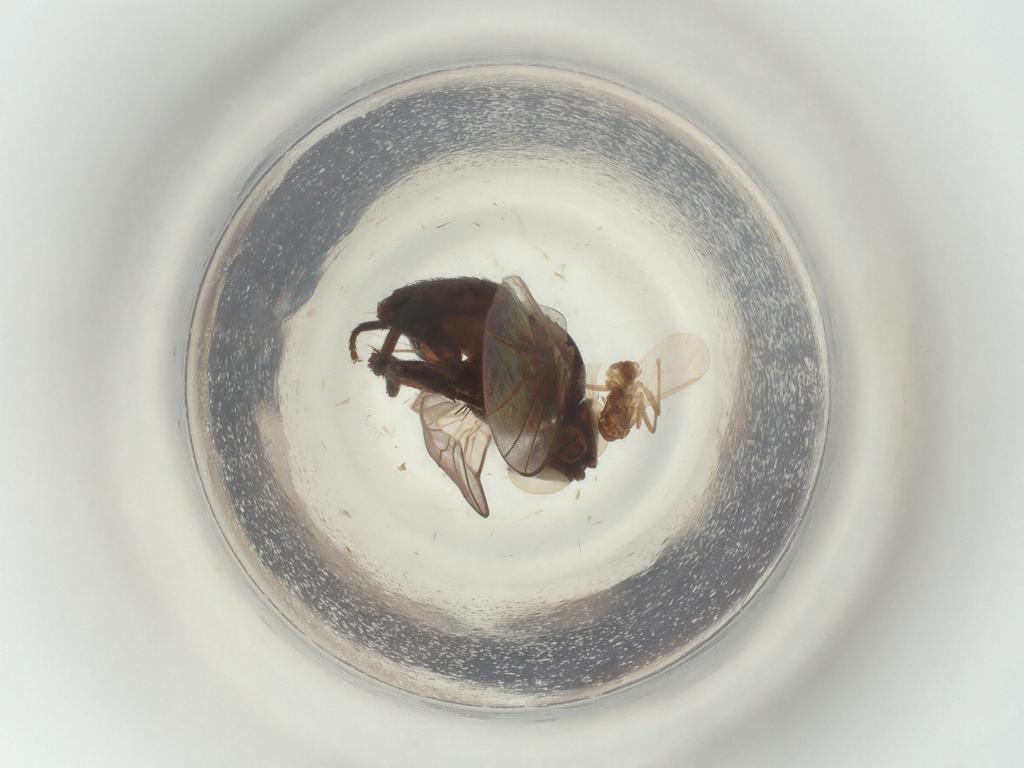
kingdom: Animalia
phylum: Arthropoda
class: Insecta
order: Diptera
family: Agromyzidae
